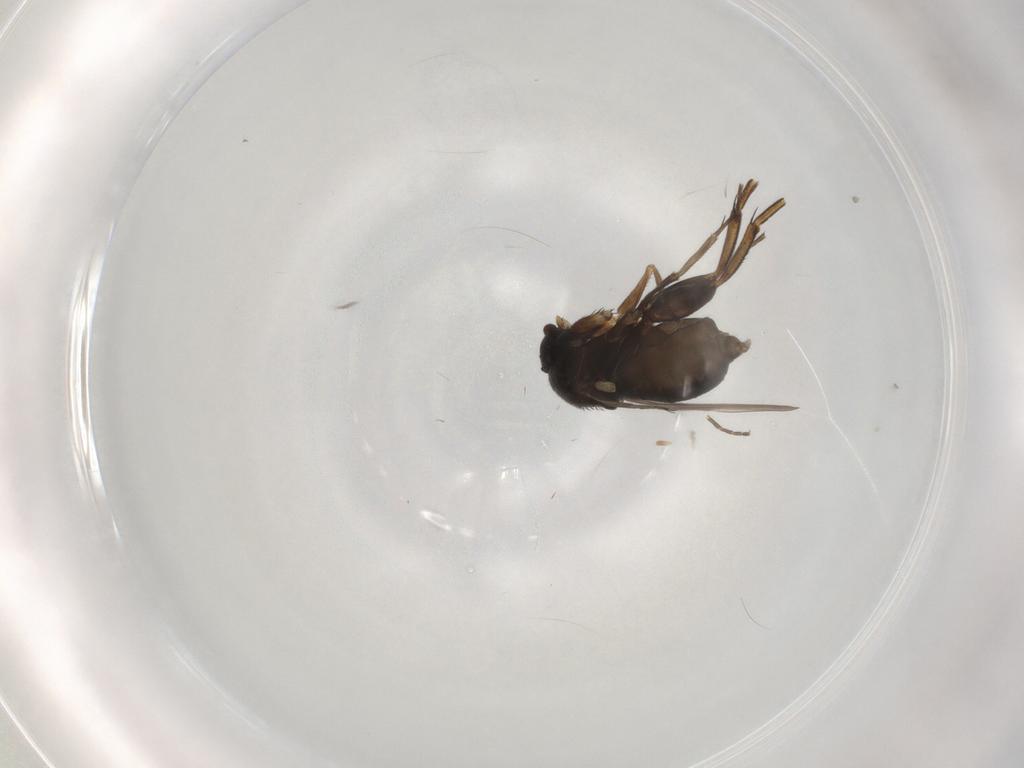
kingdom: Animalia
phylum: Arthropoda
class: Insecta
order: Diptera
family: Phoridae
